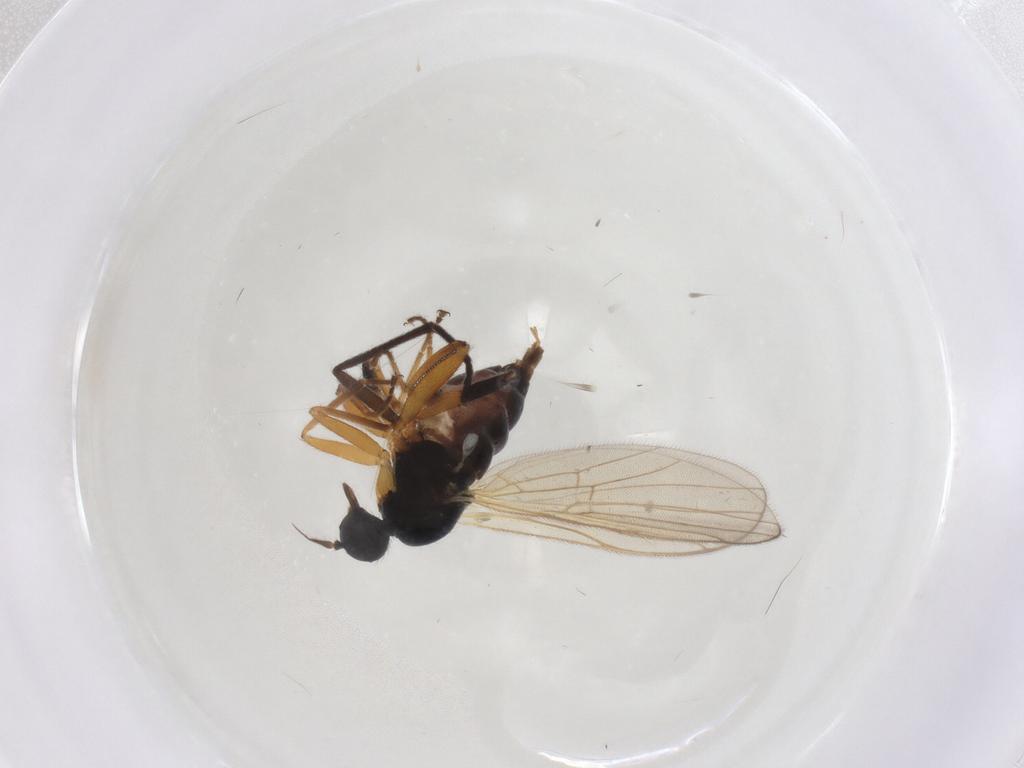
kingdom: Animalia
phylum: Arthropoda
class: Insecta
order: Diptera
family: Hybotidae
